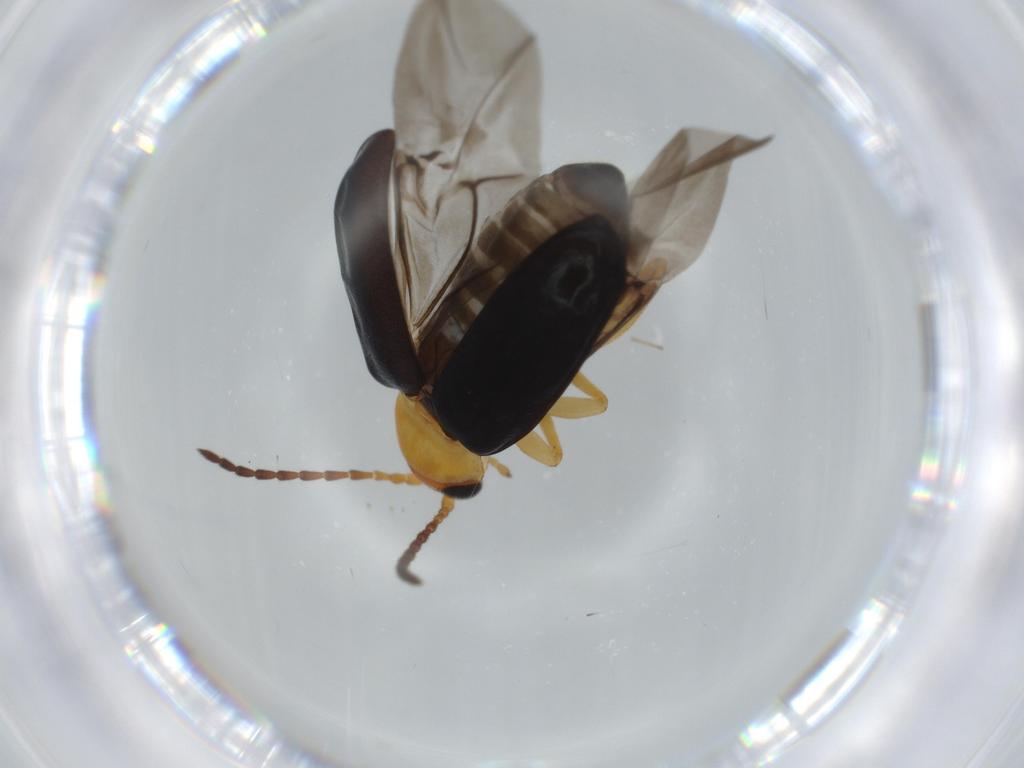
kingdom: Animalia
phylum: Arthropoda
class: Insecta
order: Coleoptera
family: Chrysomelidae
